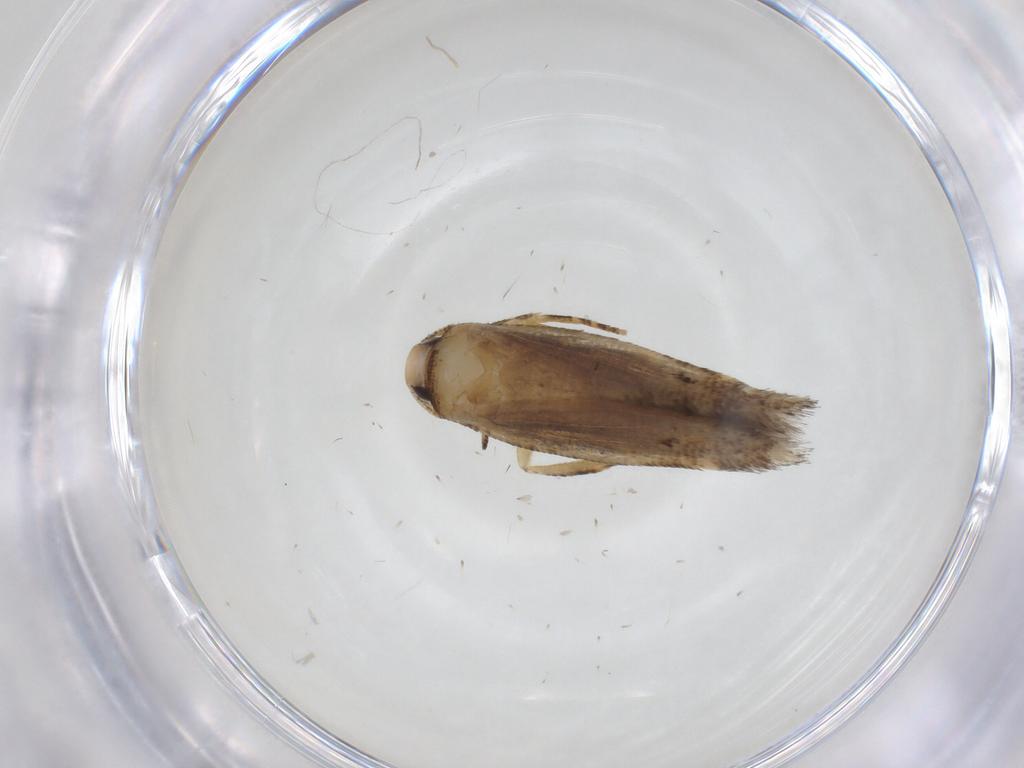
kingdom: Animalia
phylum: Arthropoda
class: Insecta
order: Lepidoptera
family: Gelechiidae
